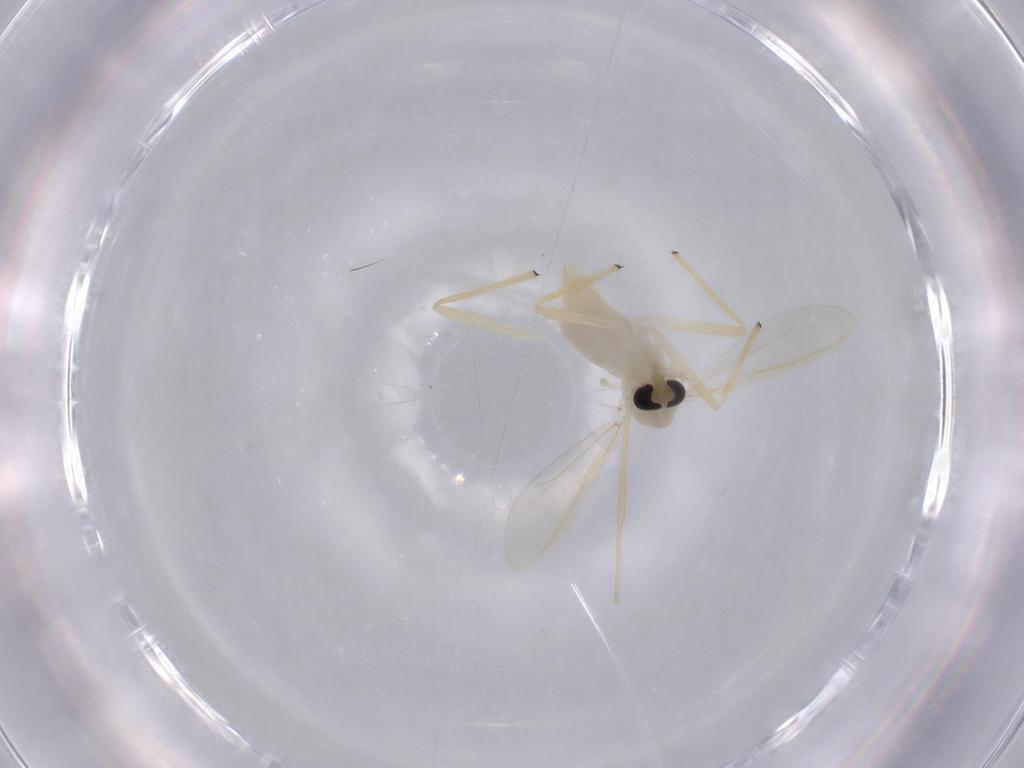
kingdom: Animalia
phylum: Arthropoda
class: Insecta
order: Diptera
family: Chironomidae
